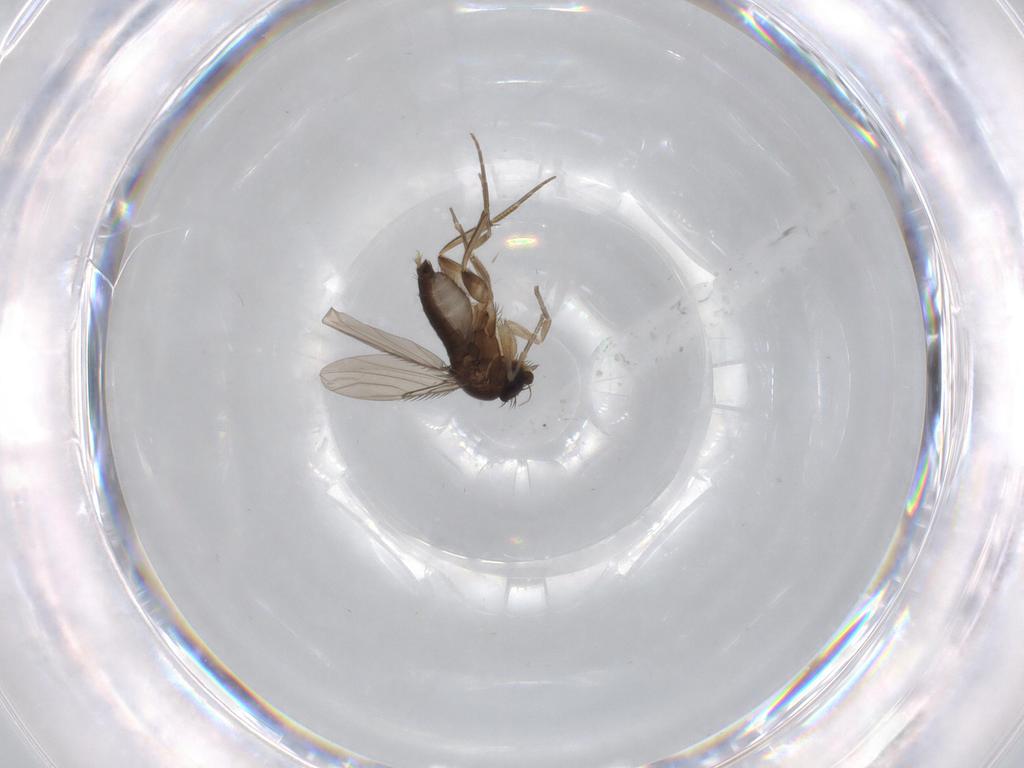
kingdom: Animalia
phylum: Arthropoda
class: Insecta
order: Diptera
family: Phoridae
